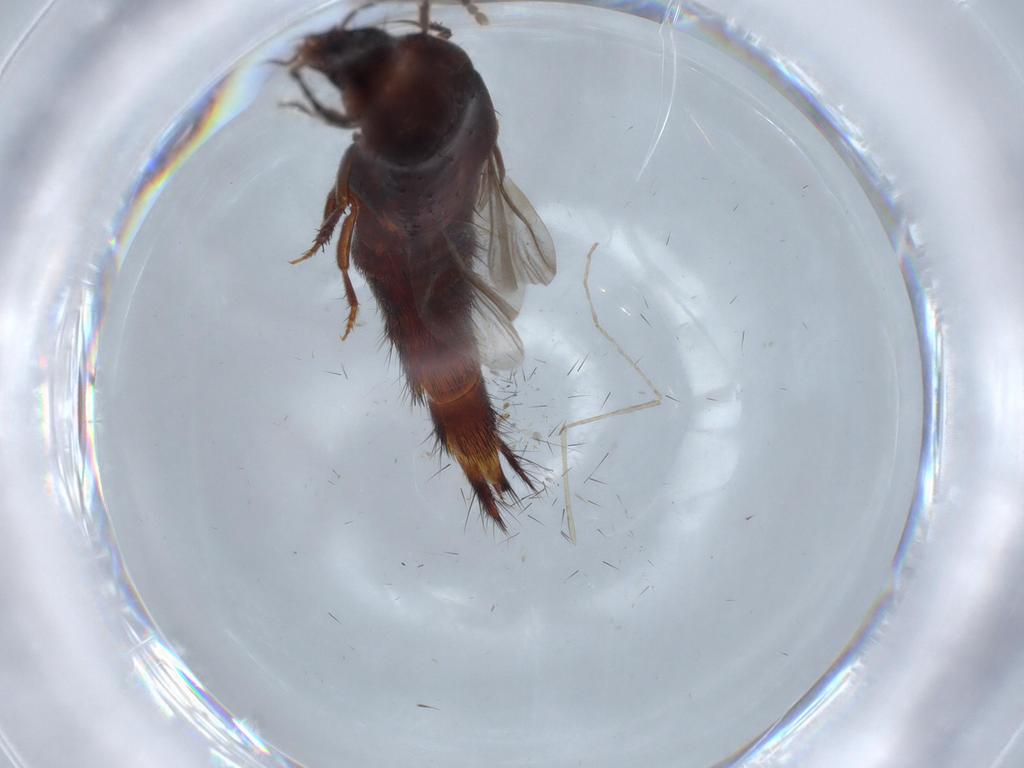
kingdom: Animalia
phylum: Arthropoda
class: Insecta
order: Coleoptera
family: Staphylinidae
